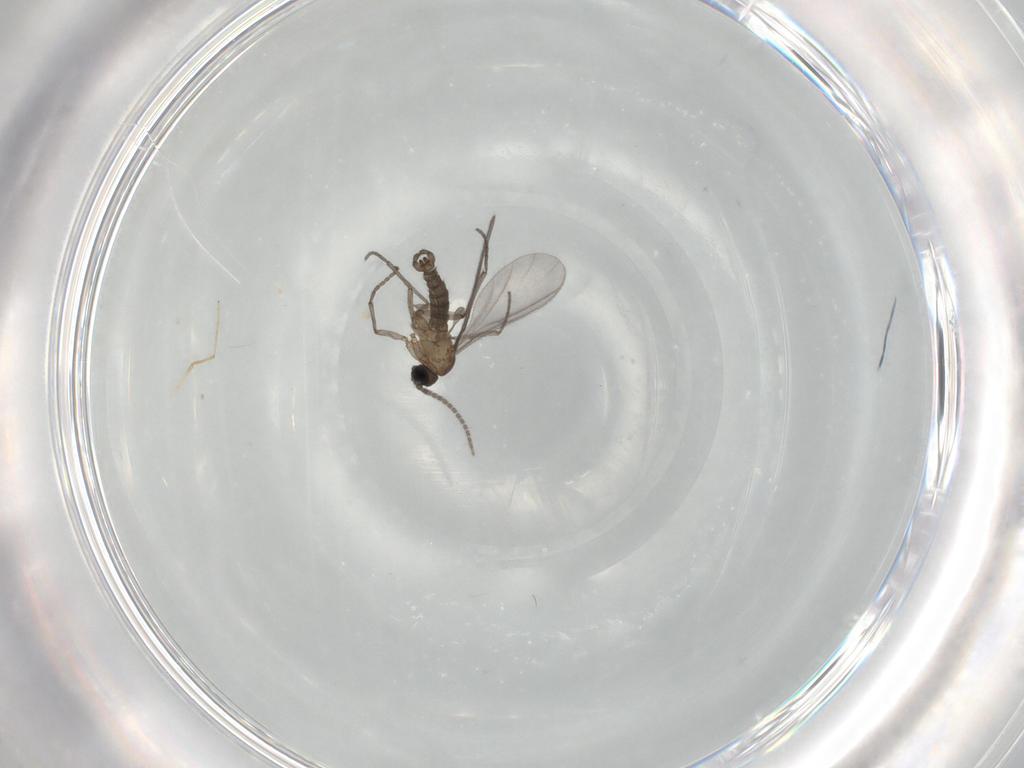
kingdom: Animalia
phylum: Arthropoda
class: Insecta
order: Diptera
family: Sciaridae
